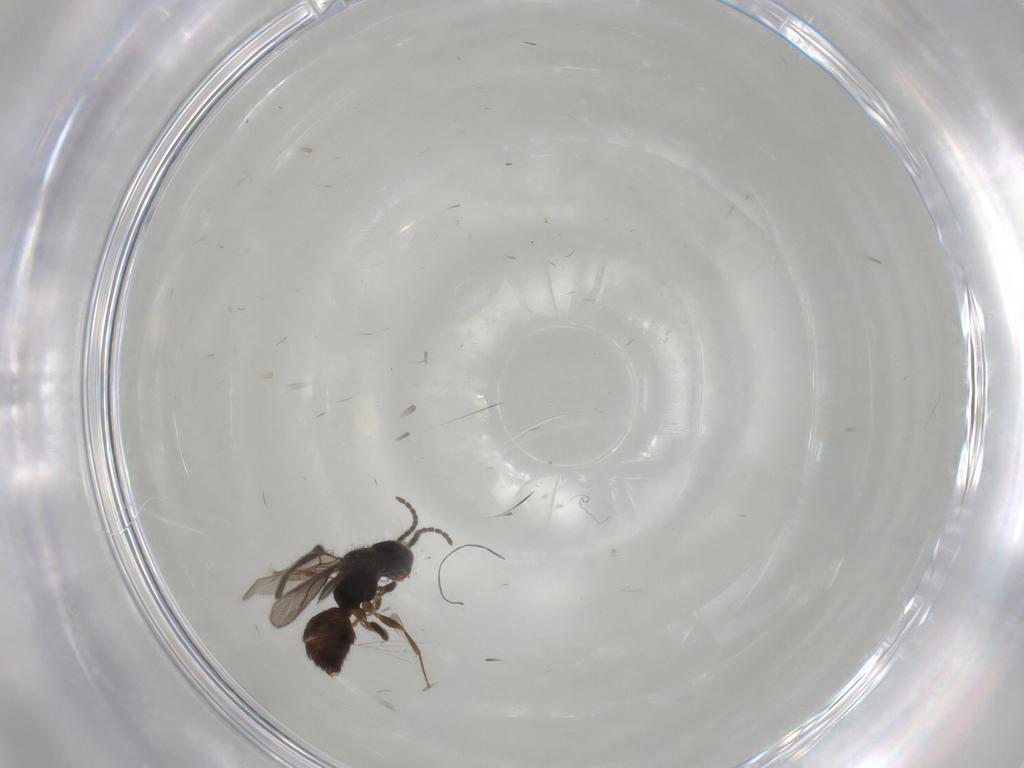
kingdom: Animalia
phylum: Arthropoda
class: Insecta
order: Hymenoptera
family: Bethylidae
